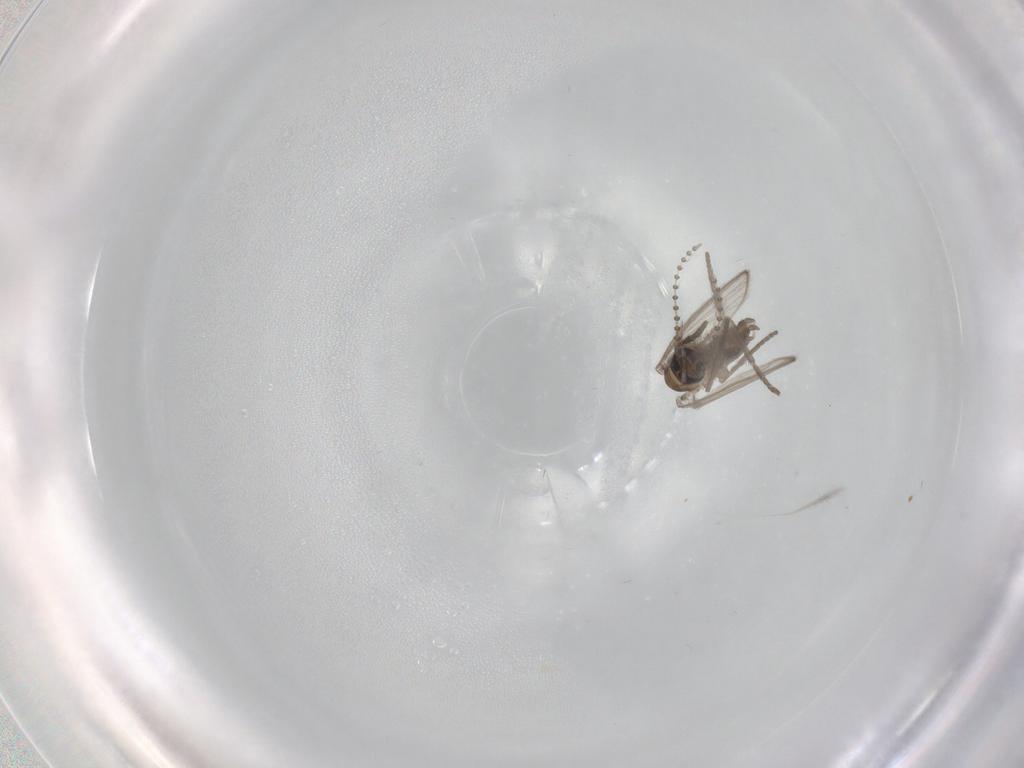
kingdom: Animalia
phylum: Arthropoda
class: Insecta
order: Diptera
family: Psychodidae
